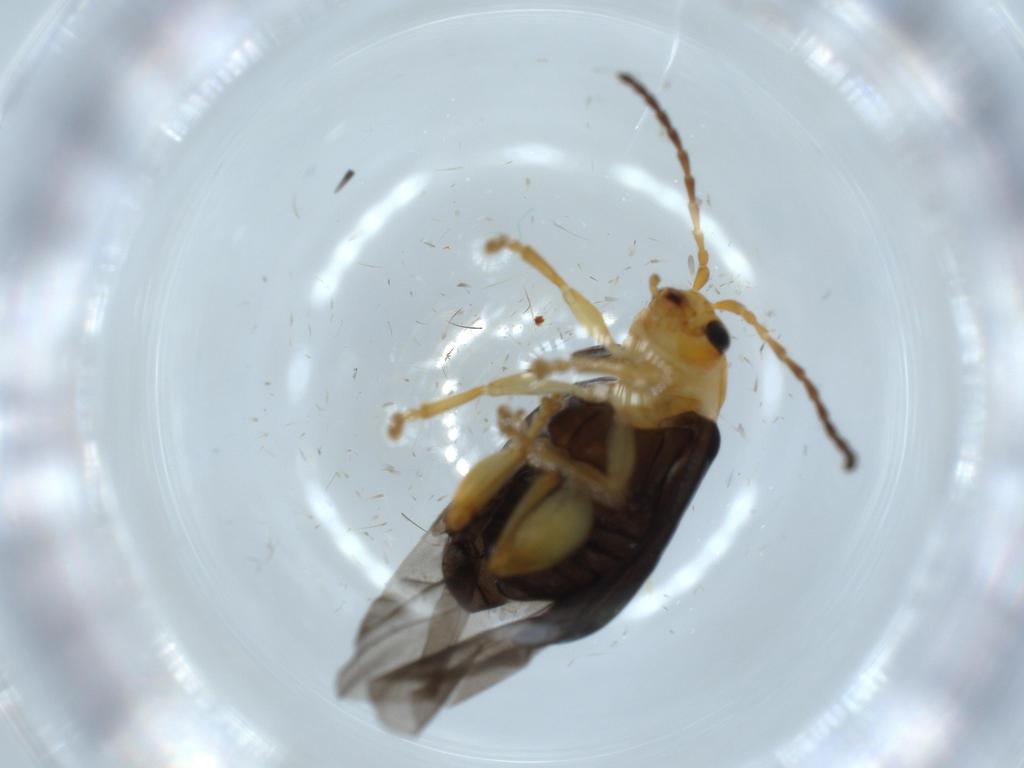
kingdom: Animalia
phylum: Arthropoda
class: Insecta
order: Coleoptera
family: Chrysomelidae
